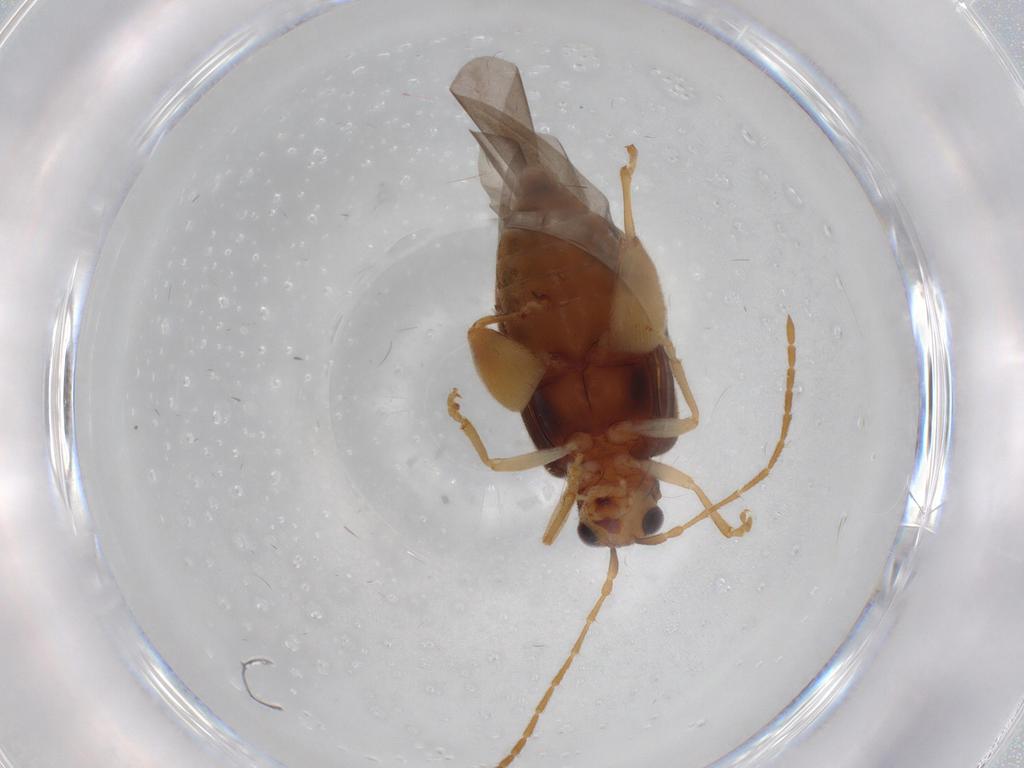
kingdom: Animalia
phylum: Arthropoda
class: Insecta
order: Coleoptera
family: Chrysomelidae
